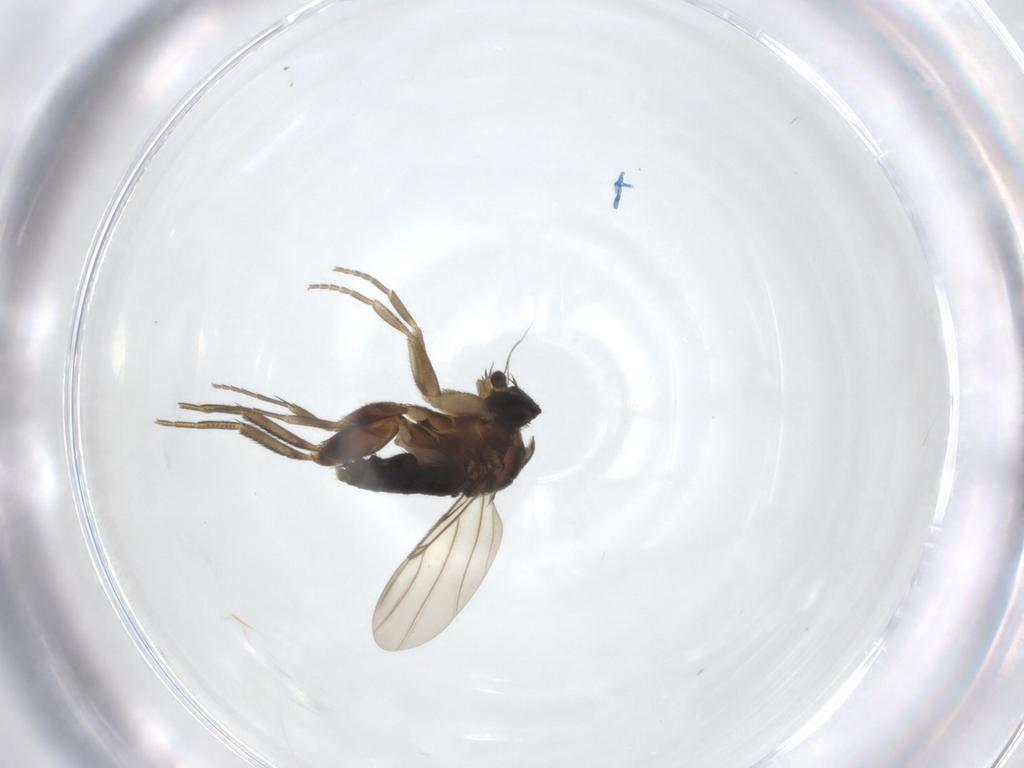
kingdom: Animalia
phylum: Arthropoda
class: Insecta
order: Diptera
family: Phoridae
